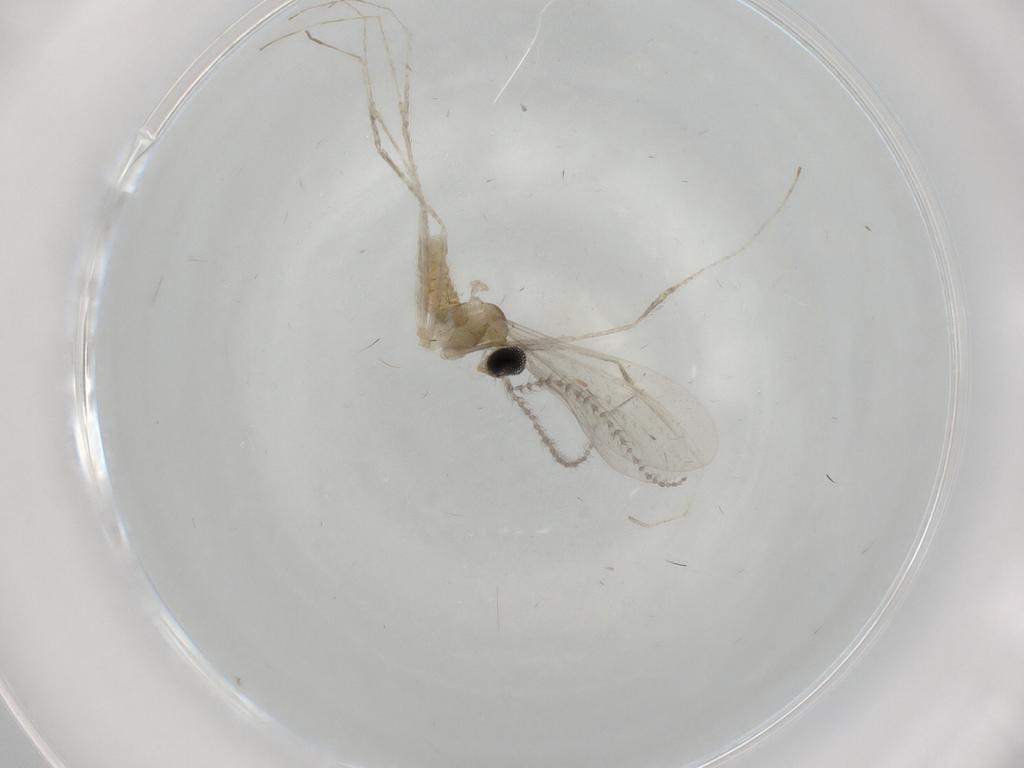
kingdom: Animalia
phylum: Arthropoda
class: Insecta
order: Diptera
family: Cecidomyiidae
